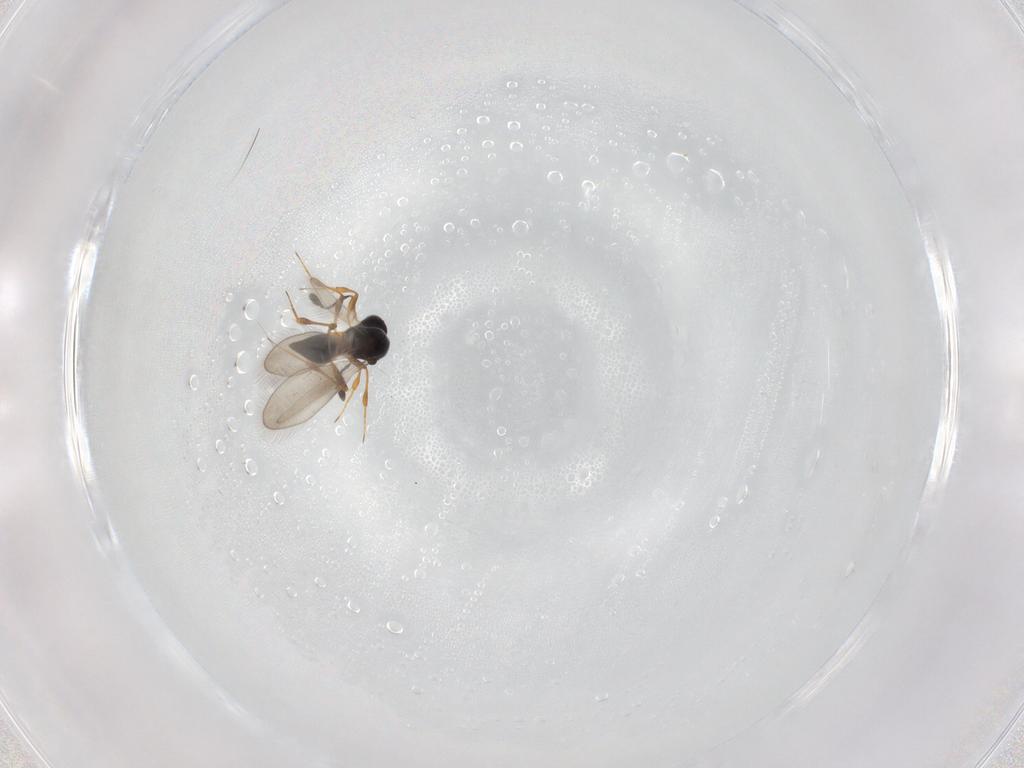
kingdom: Animalia
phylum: Arthropoda
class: Insecta
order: Hymenoptera
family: Platygastridae
